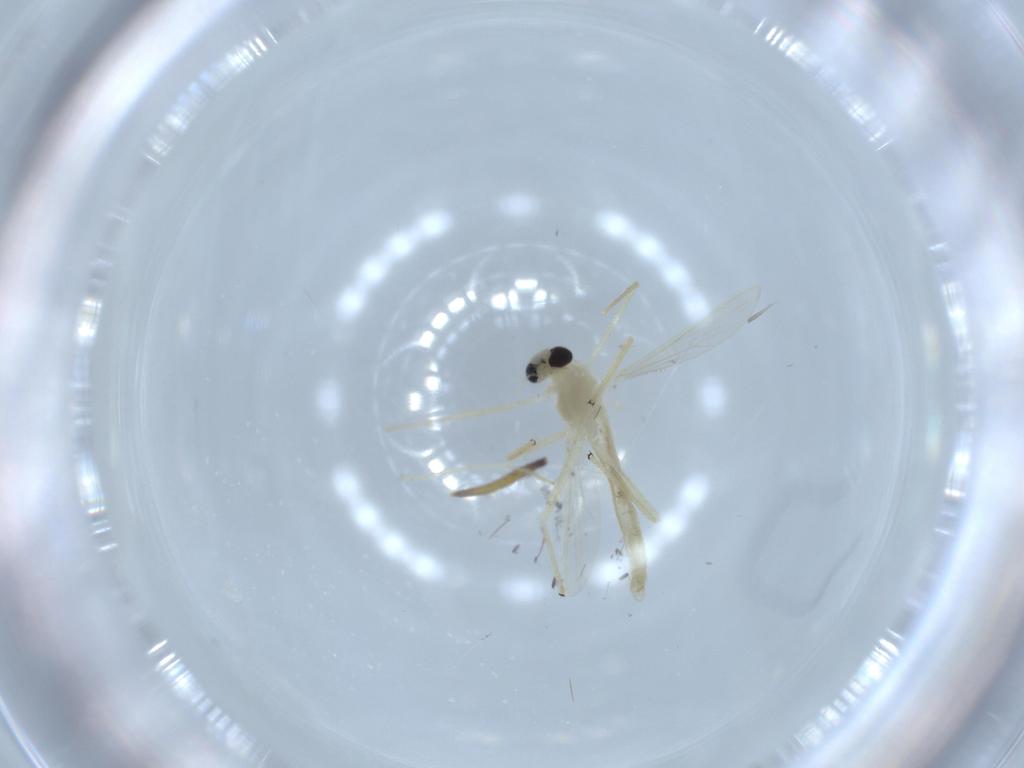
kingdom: Animalia
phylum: Arthropoda
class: Insecta
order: Diptera
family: Chironomidae
